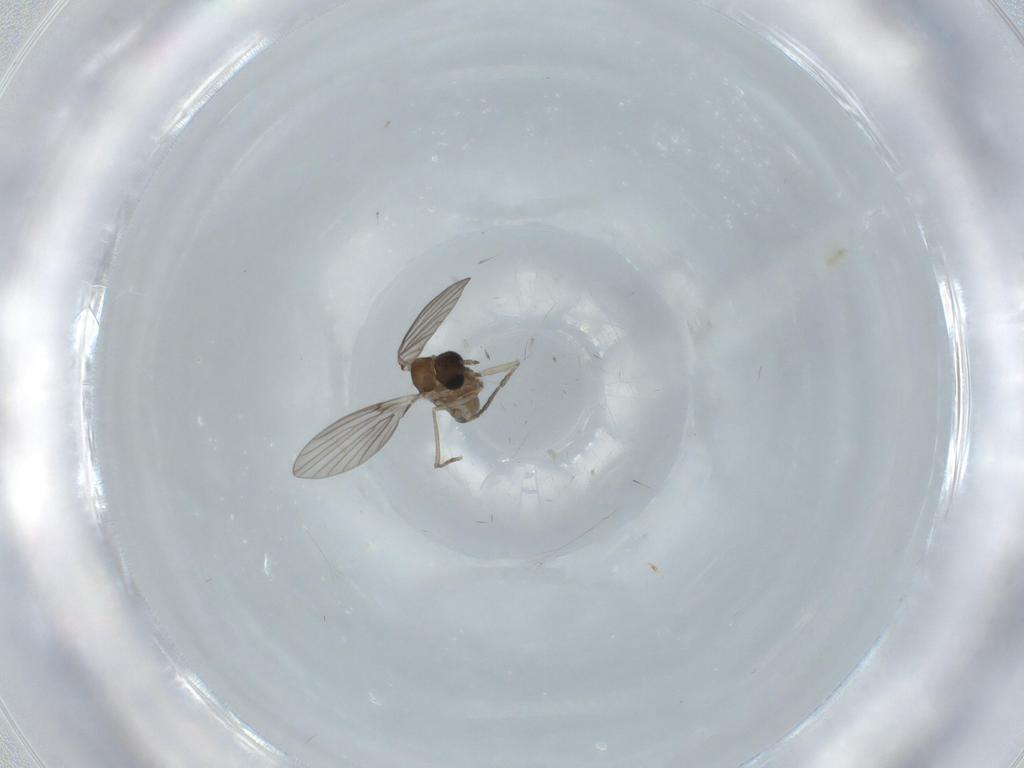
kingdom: Animalia
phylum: Arthropoda
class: Insecta
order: Diptera
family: Psychodidae
